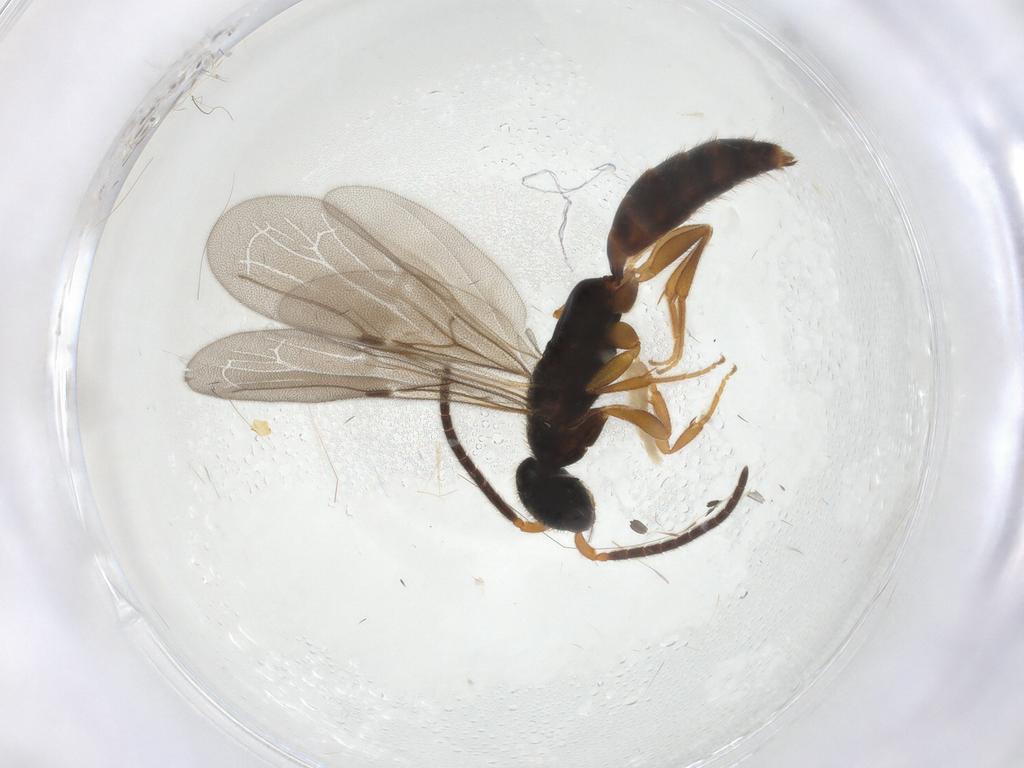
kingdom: Animalia
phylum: Arthropoda
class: Insecta
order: Hymenoptera
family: Bethylidae
